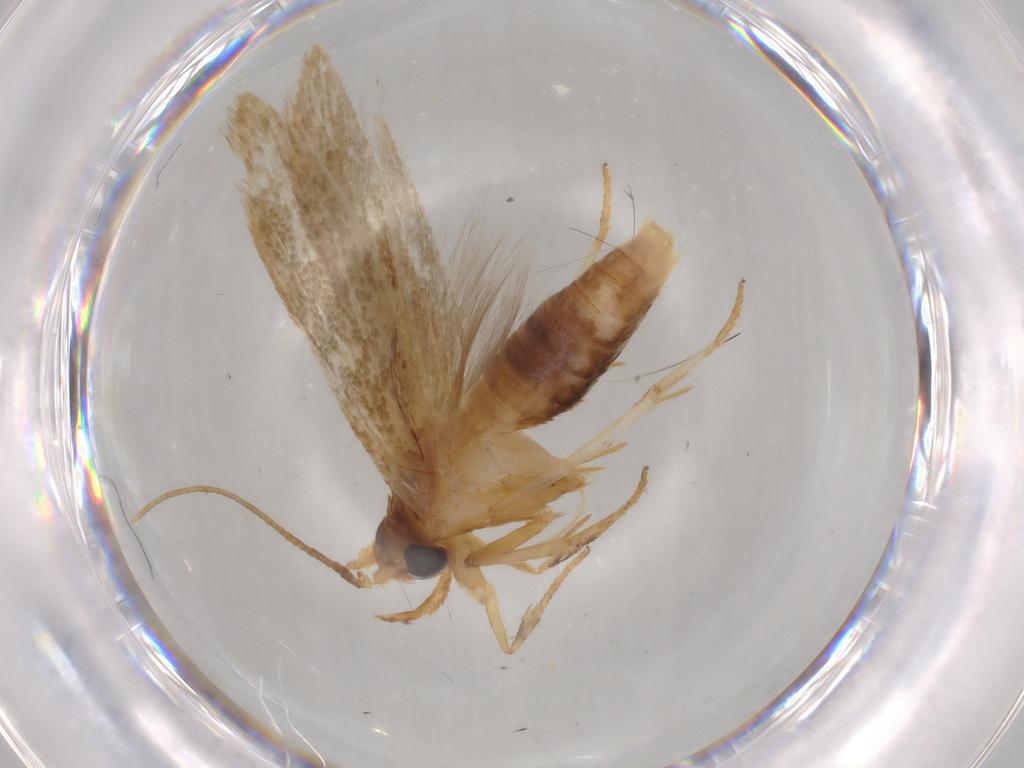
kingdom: Animalia
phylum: Arthropoda
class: Insecta
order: Lepidoptera
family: Blastobasidae
